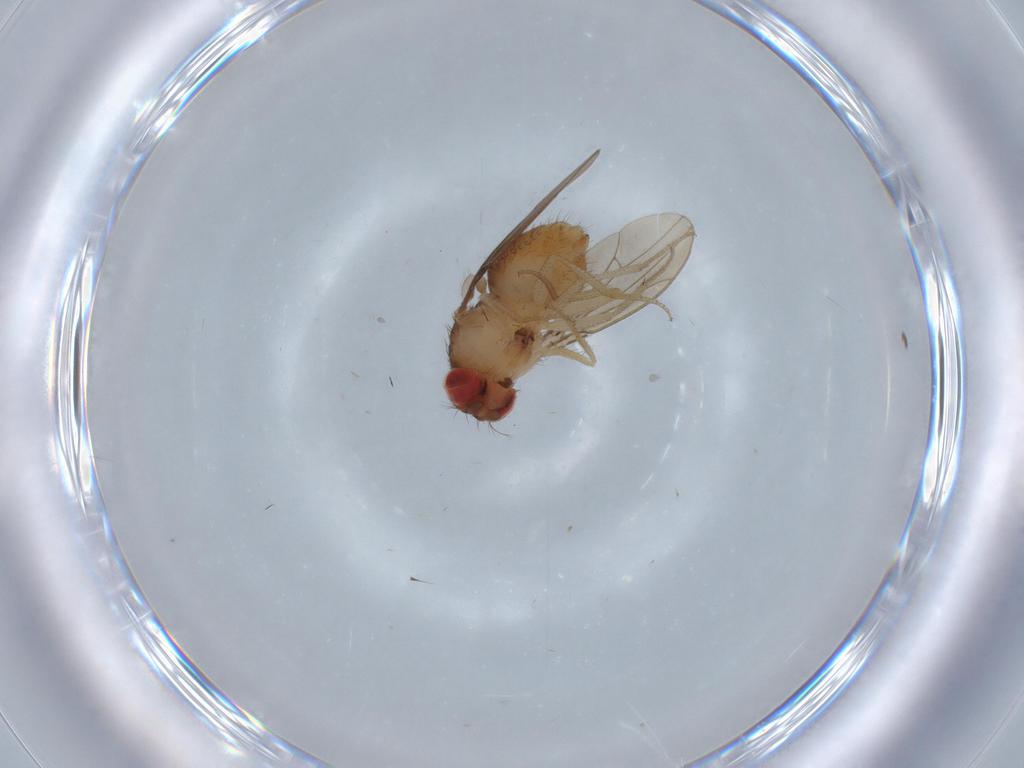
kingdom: Animalia
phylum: Arthropoda
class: Insecta
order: Diptera
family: Drosophilidae
